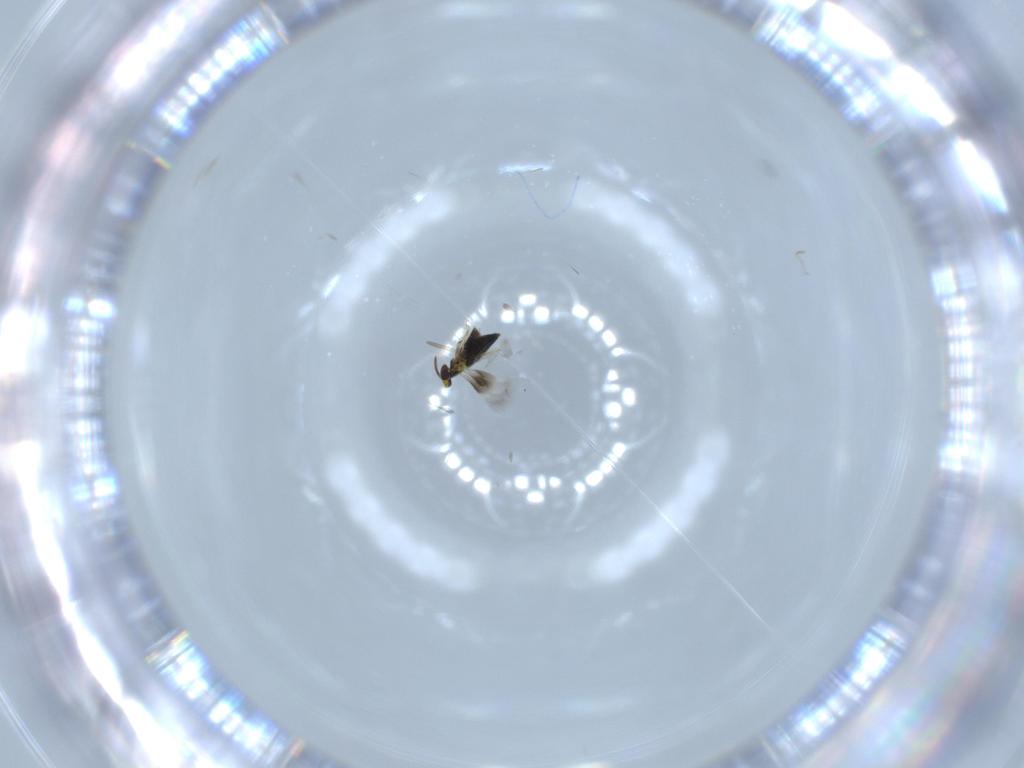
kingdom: Animalia
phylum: Arthropoda
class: Insecta
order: Hymenoptera
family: Signiphoridae
